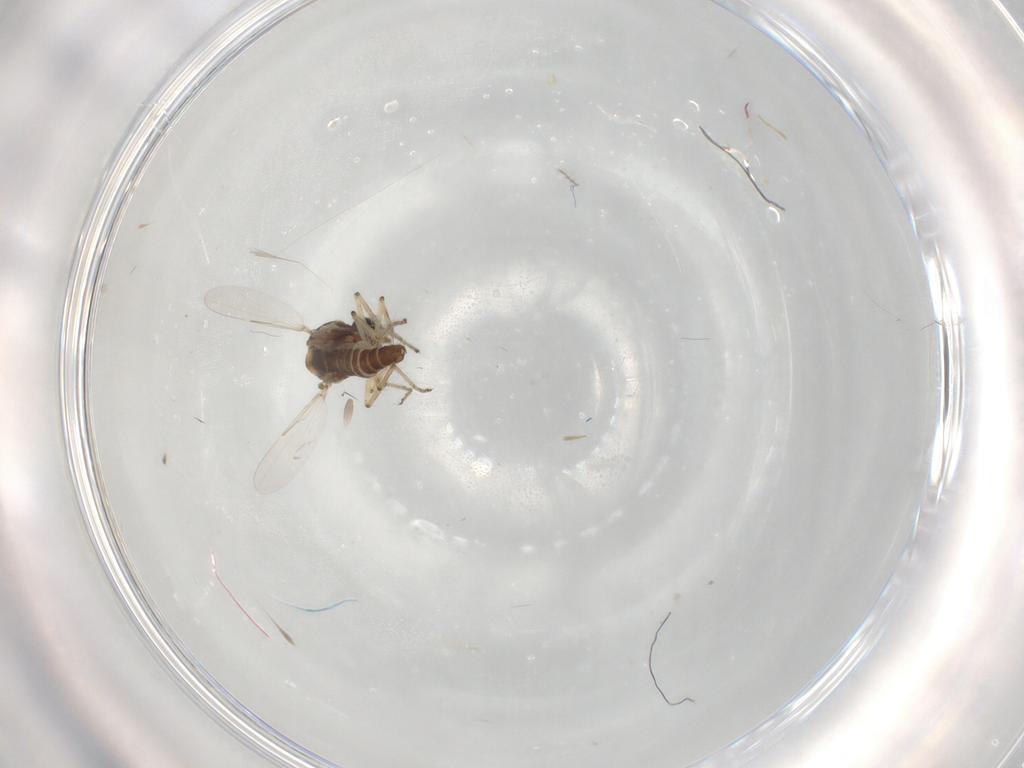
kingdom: Animalia
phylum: Arthropoda
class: Insecta
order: Diptera
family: Ceratopogonidae
